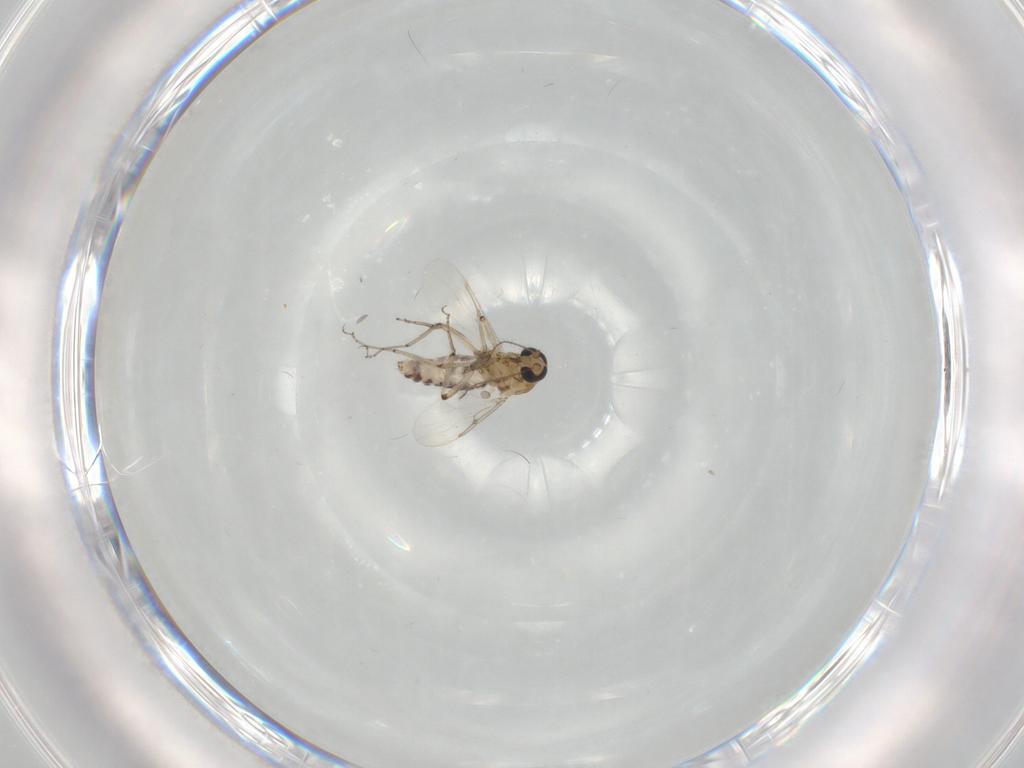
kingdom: Animalia
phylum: Arthropoda
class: Insecta
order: Diptera
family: Ceratopogonidae
